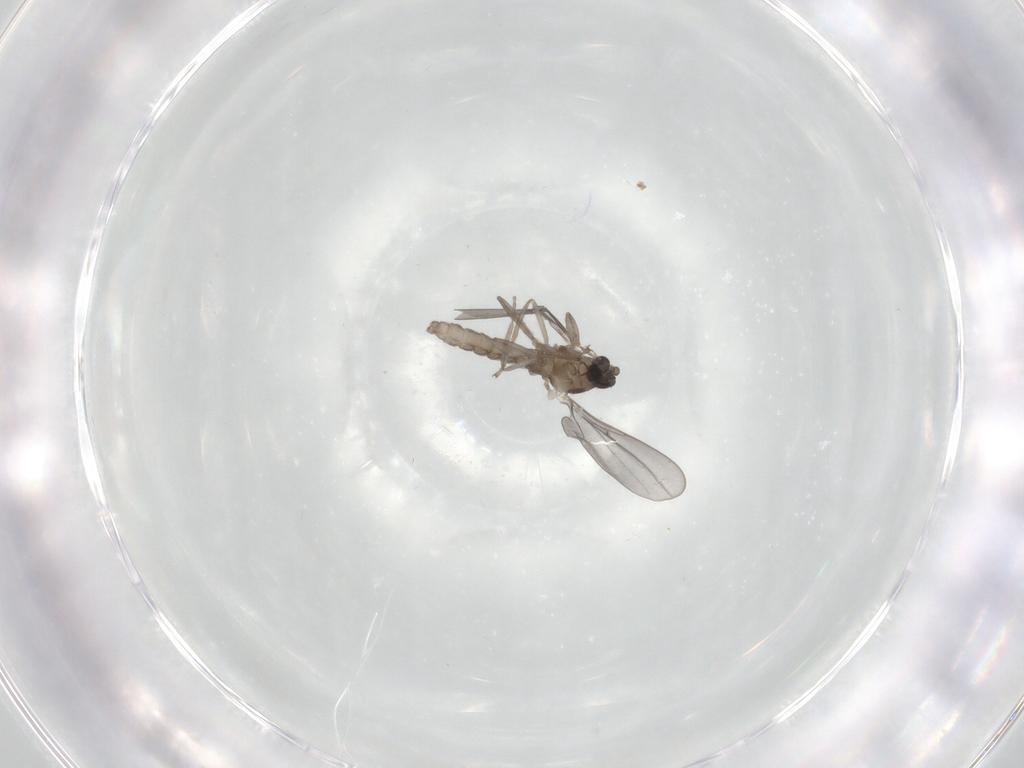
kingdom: Animalia
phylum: Arthropoda
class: Insecta
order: Diptera
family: Cecidomyiidae
